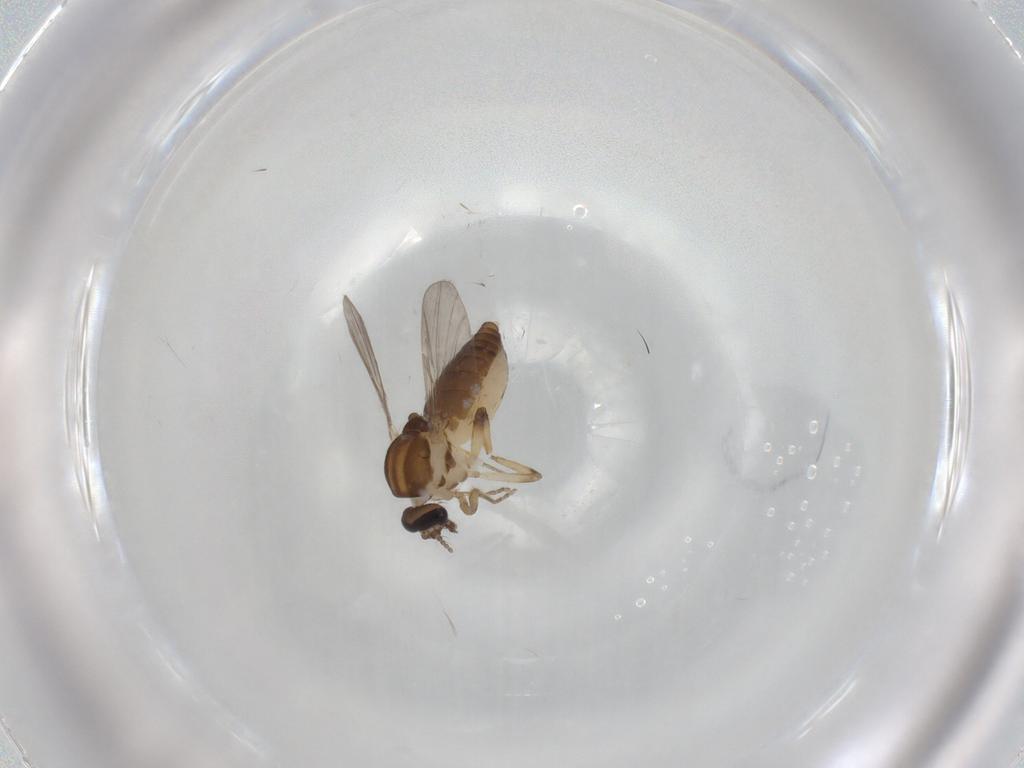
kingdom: Animalia
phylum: Arthropoda
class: Insecta
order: Diptera
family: Ceratopogonidae
